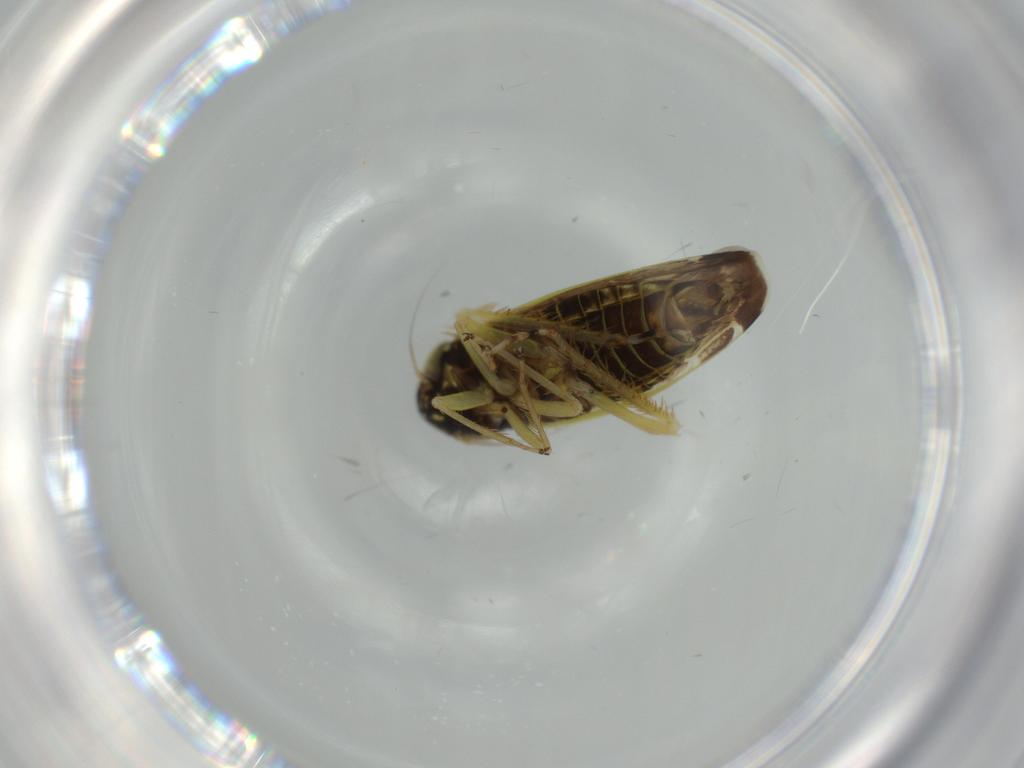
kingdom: Animalia
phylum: Arthropoda
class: Insecta
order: Hemiptera
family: Cicadellidae
